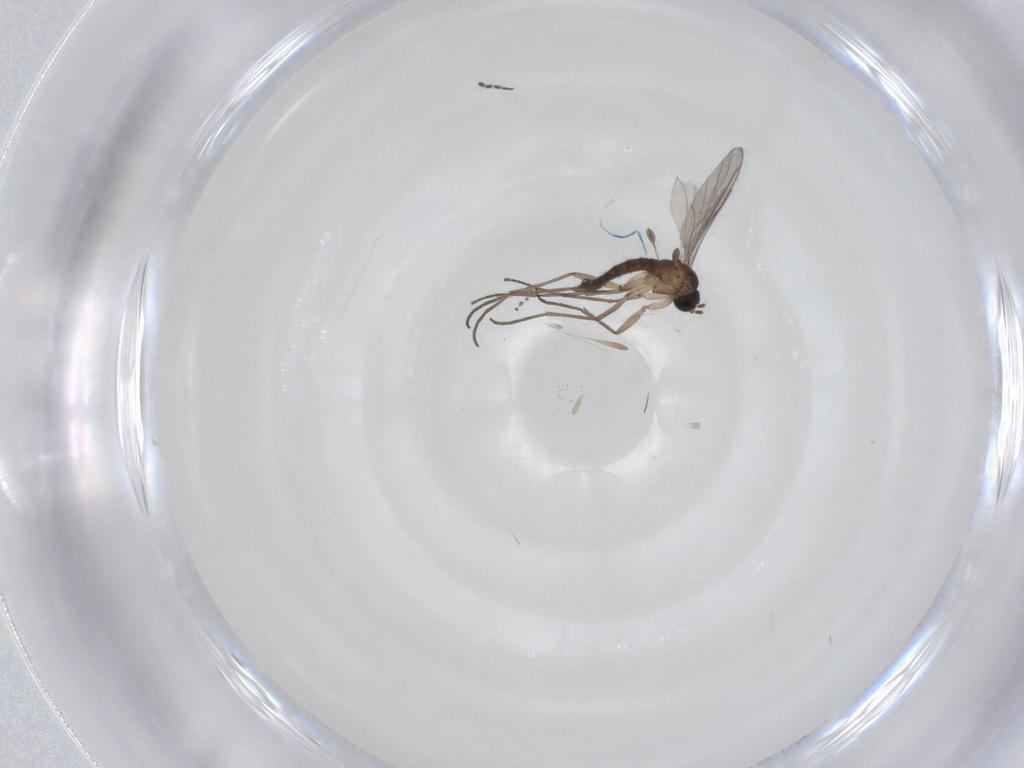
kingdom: Animalia
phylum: Arthropoda
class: Insecta
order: Diptera
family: Sciaridae
